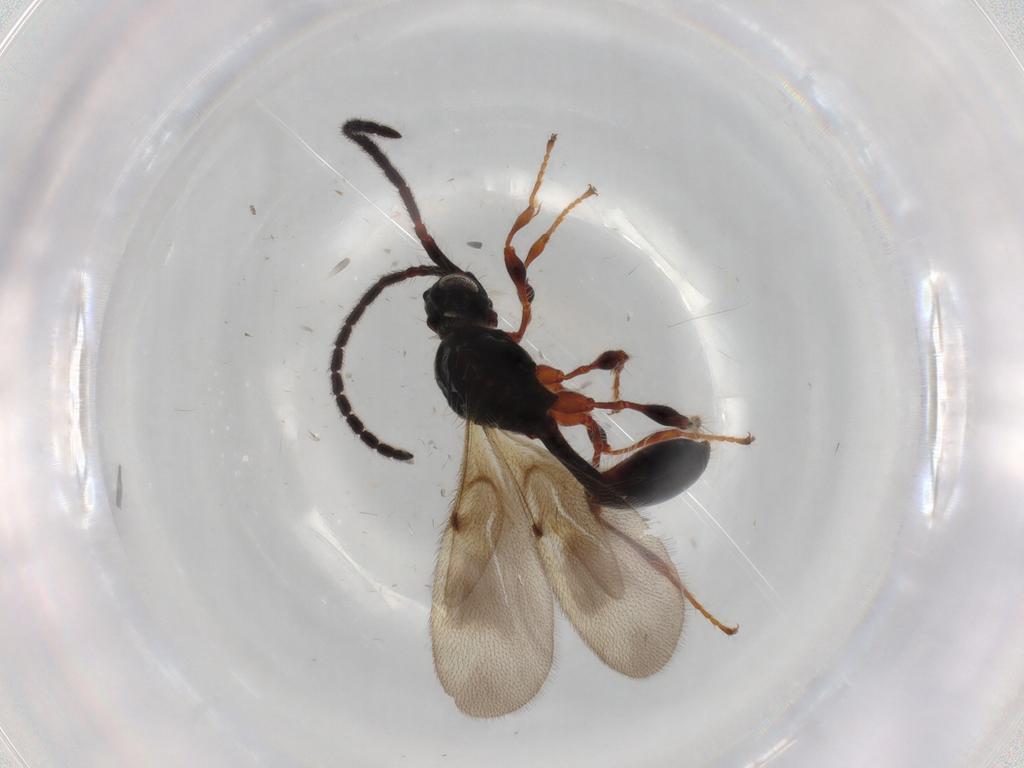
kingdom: Animalia
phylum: Arthropoda
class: Insecta
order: Hymenoptera
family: Diapriidae
